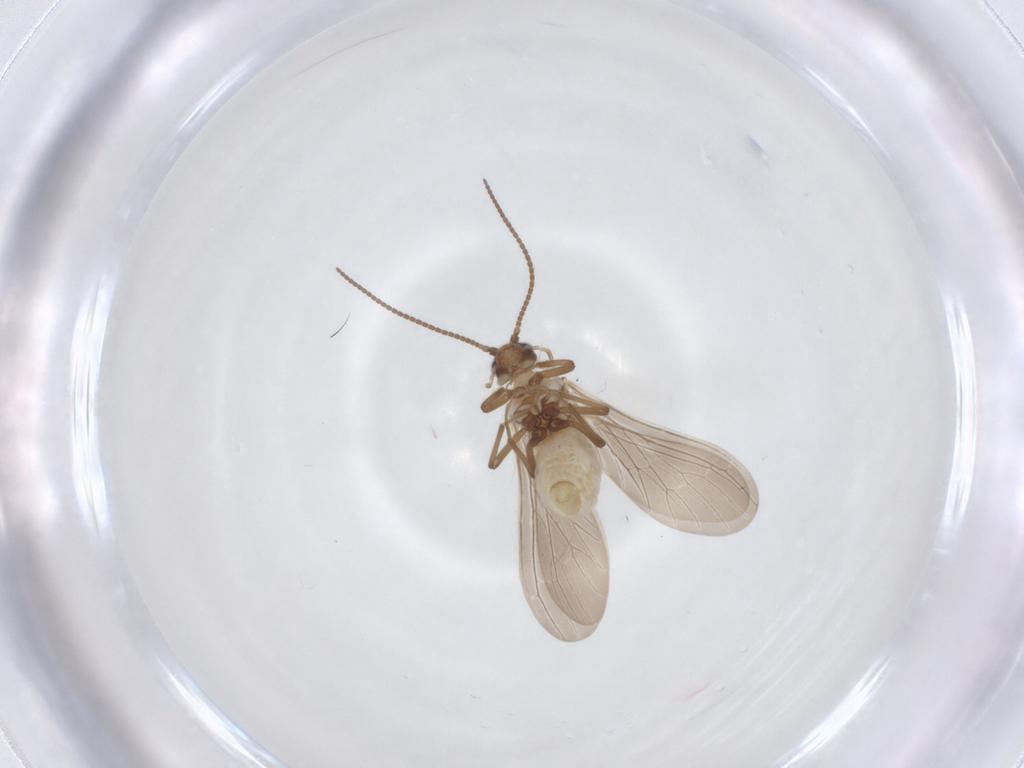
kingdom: Animalia
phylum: Arthropoda
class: Insecta
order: Neuroptera
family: Coniopterygidae
